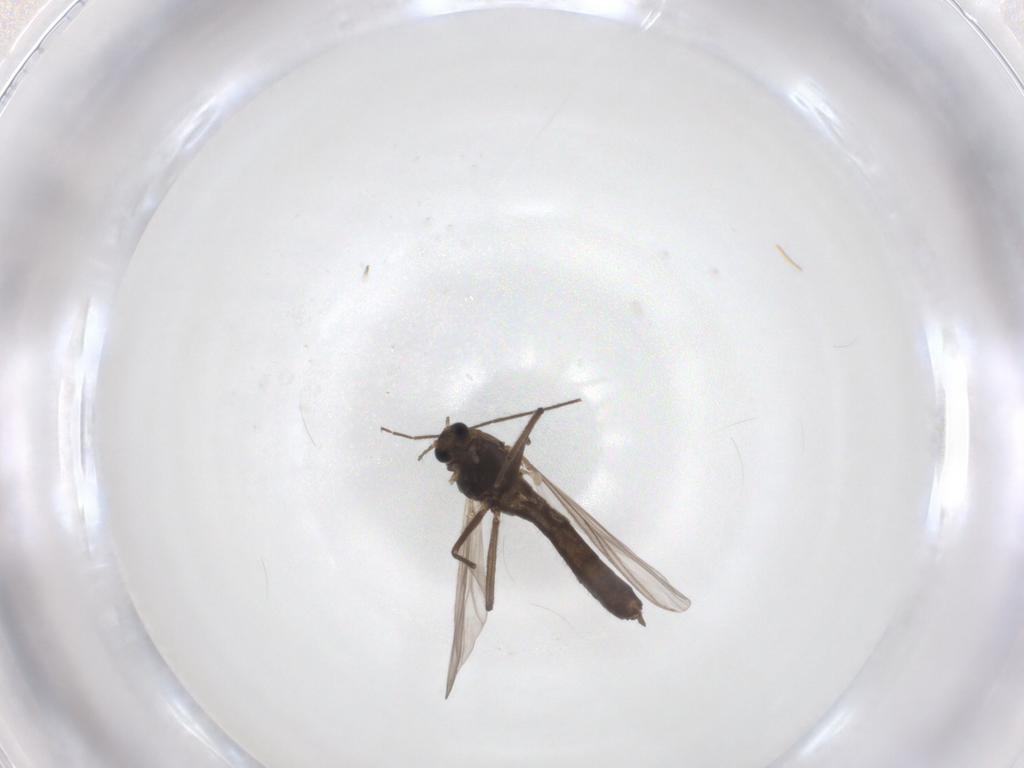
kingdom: Animalia
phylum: Arthropoda
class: Insecta
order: Diptera
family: Chironomidae
